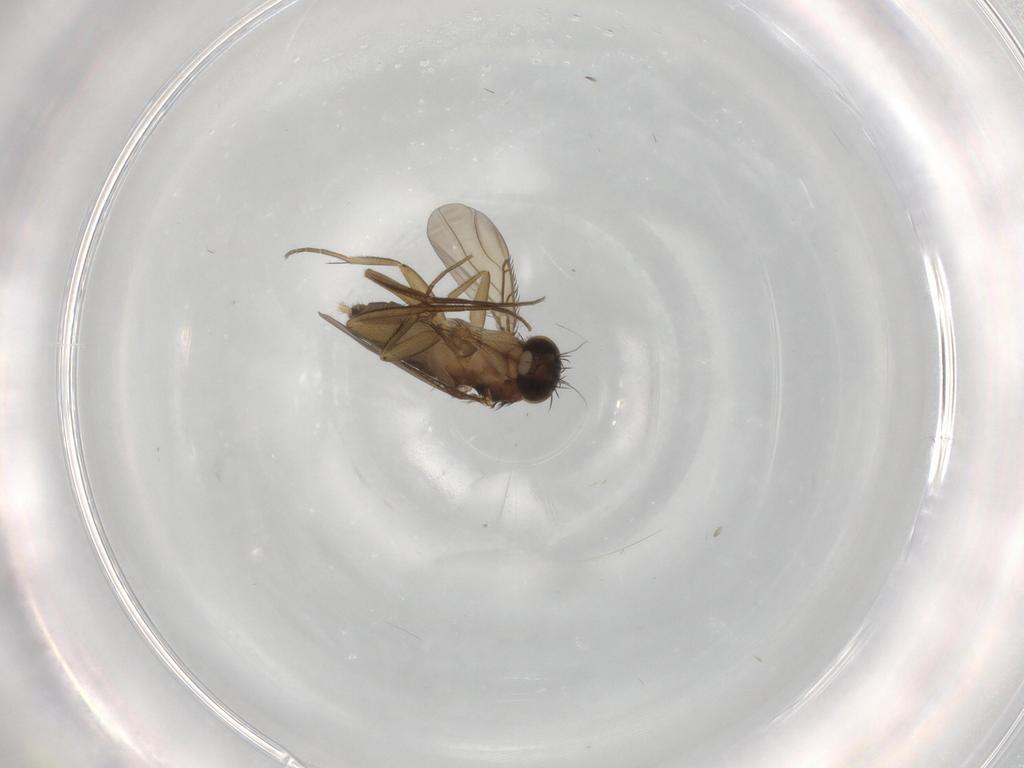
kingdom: Animalia
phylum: Arthropoda
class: Insecta
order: Diptera
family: Phoridae
